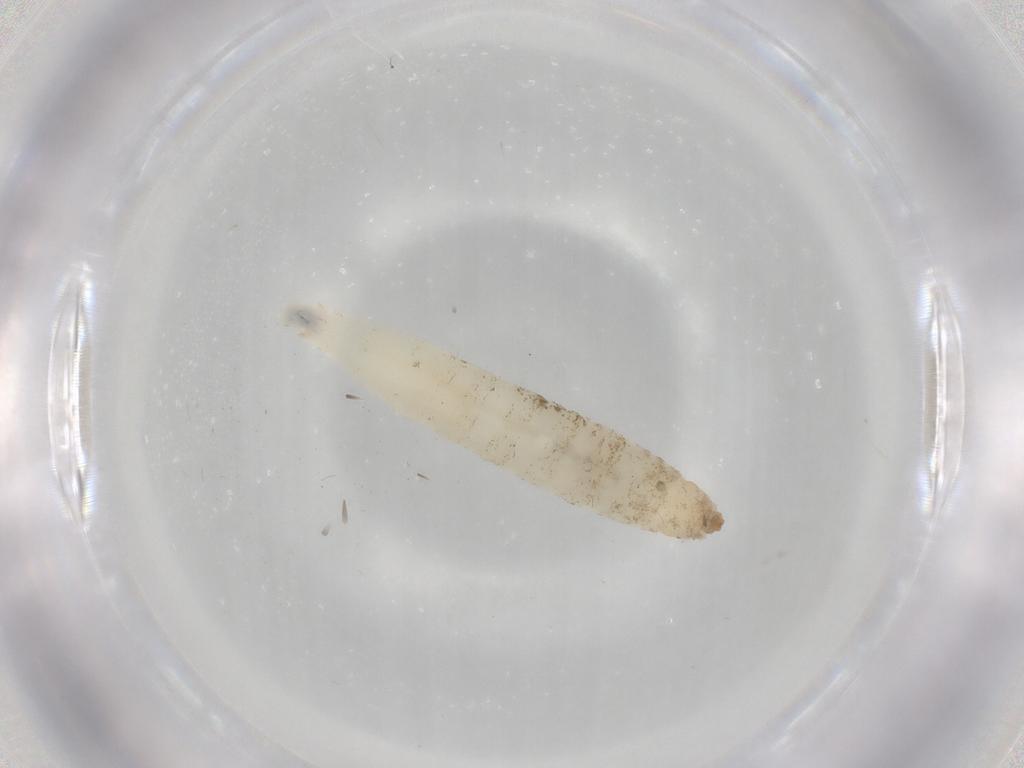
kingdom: Animalia
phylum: Arthropoda
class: Insecta
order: Diptera
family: Drosophilidae
